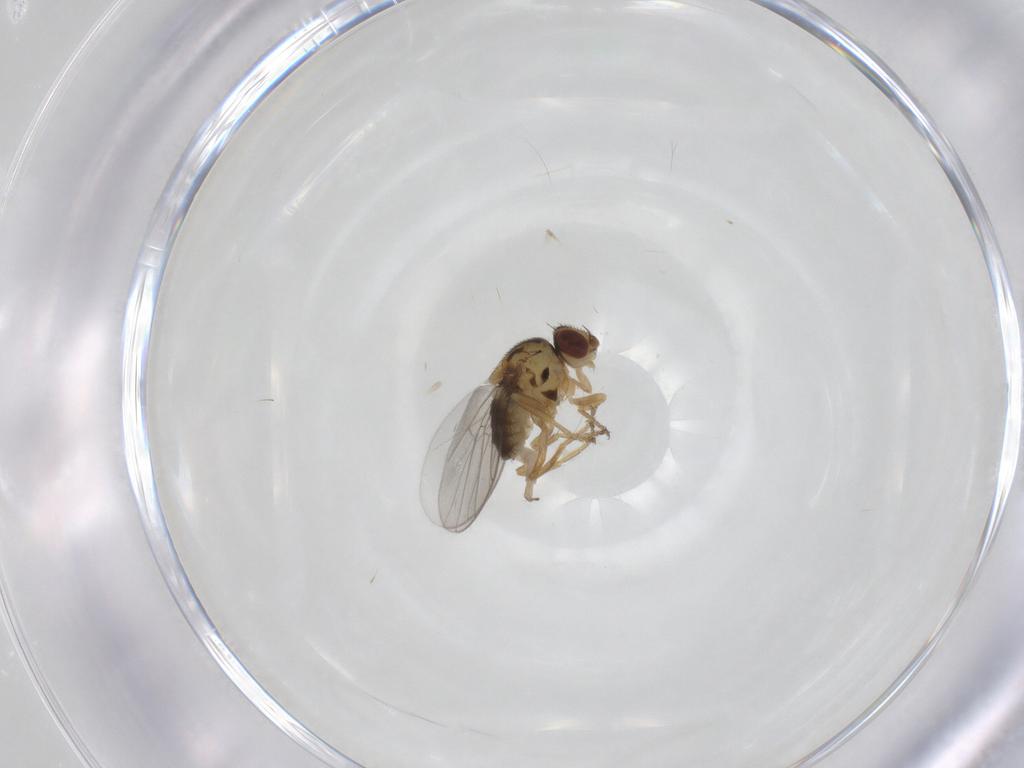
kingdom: Animalia
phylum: Arthropoda
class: Insecta
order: Diptera
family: Chloropidae
